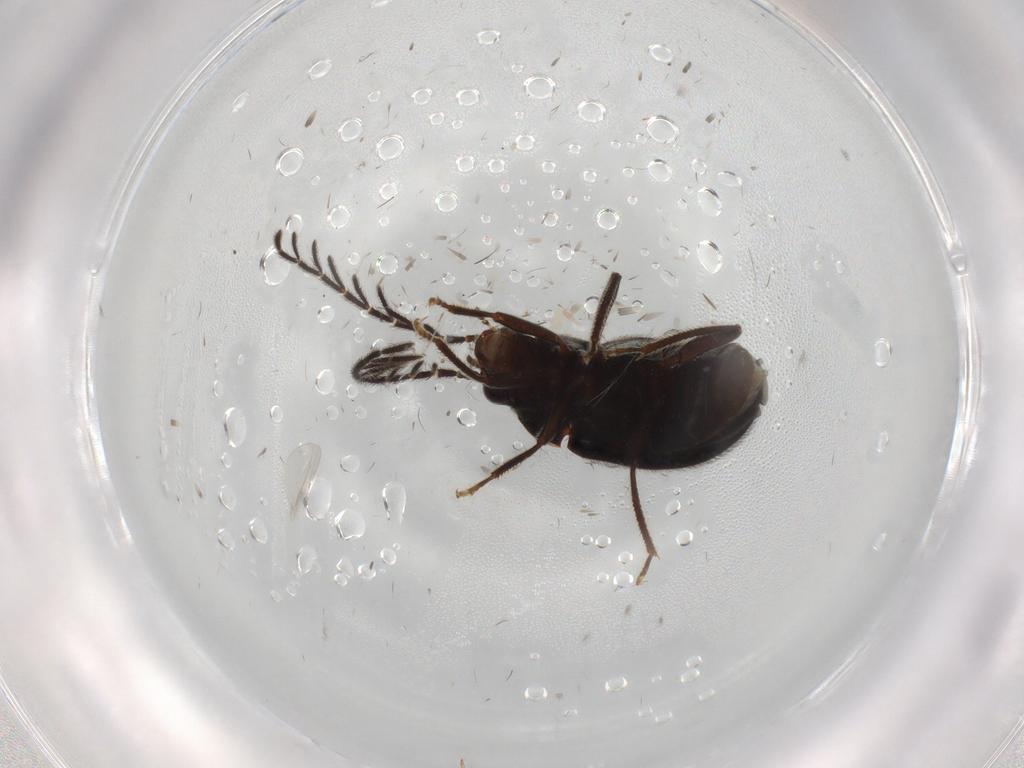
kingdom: Animalia
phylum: Arthropoda
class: Insecta
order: Coleoptera
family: Ptilodactylidae
